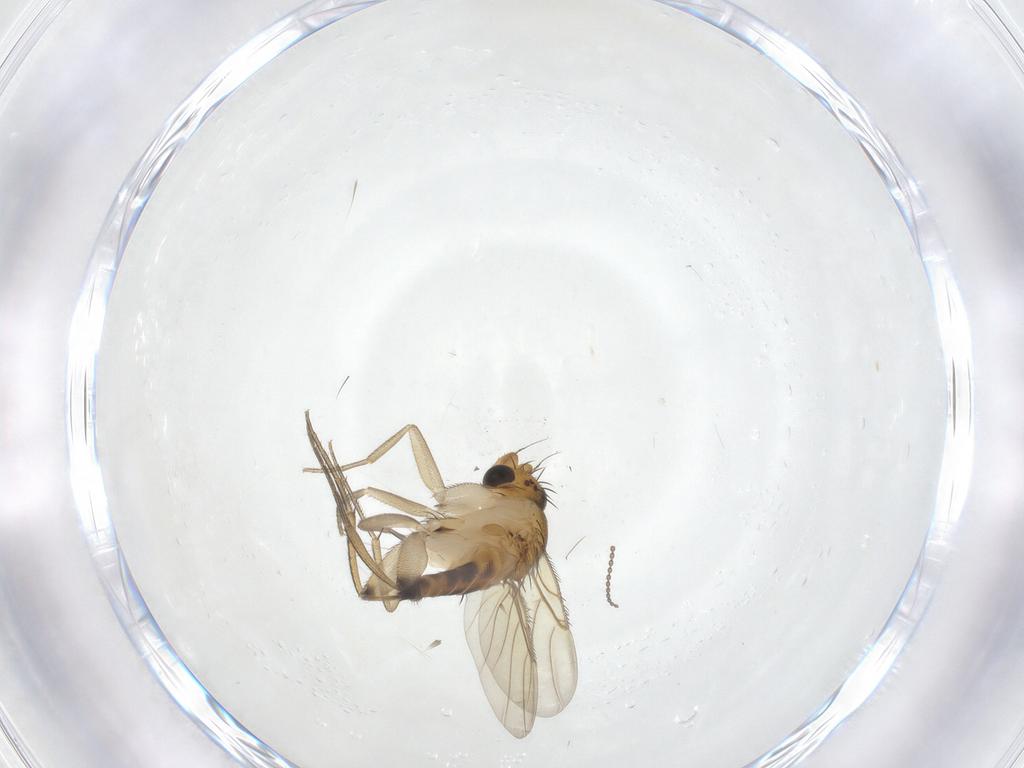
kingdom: Animalia
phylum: Arthropoda
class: Insecta
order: Diptera
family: Phoridae
